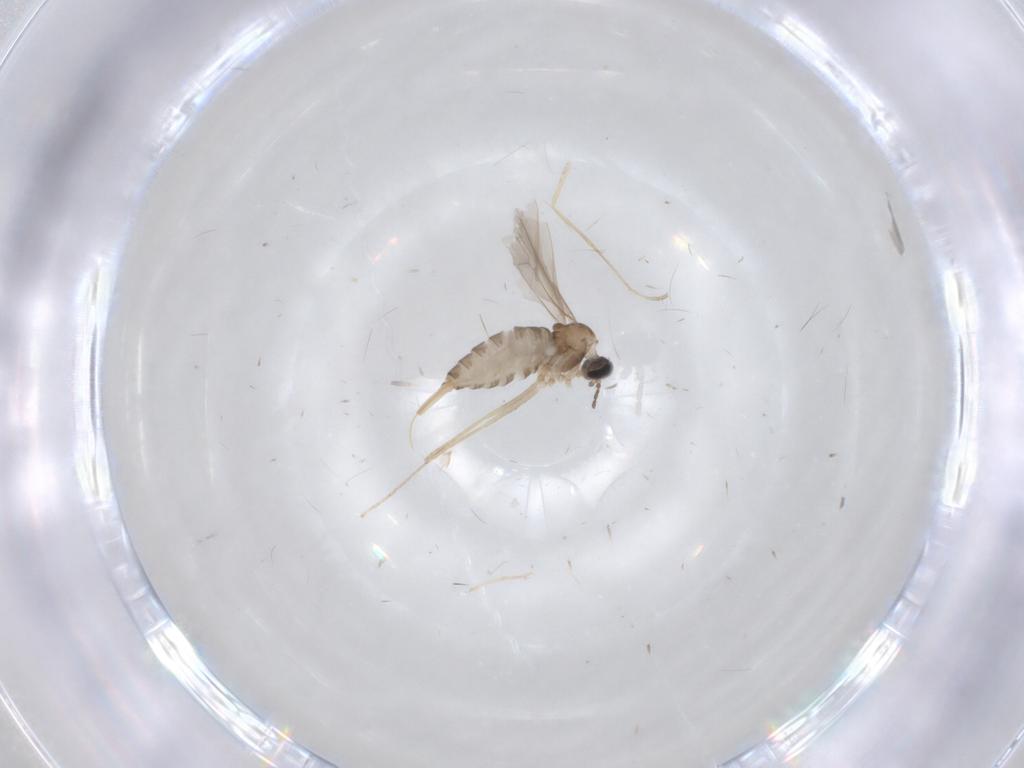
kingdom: Animalia
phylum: Arthropoda
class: Insecta
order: Diptera
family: Cecidomyiidae
